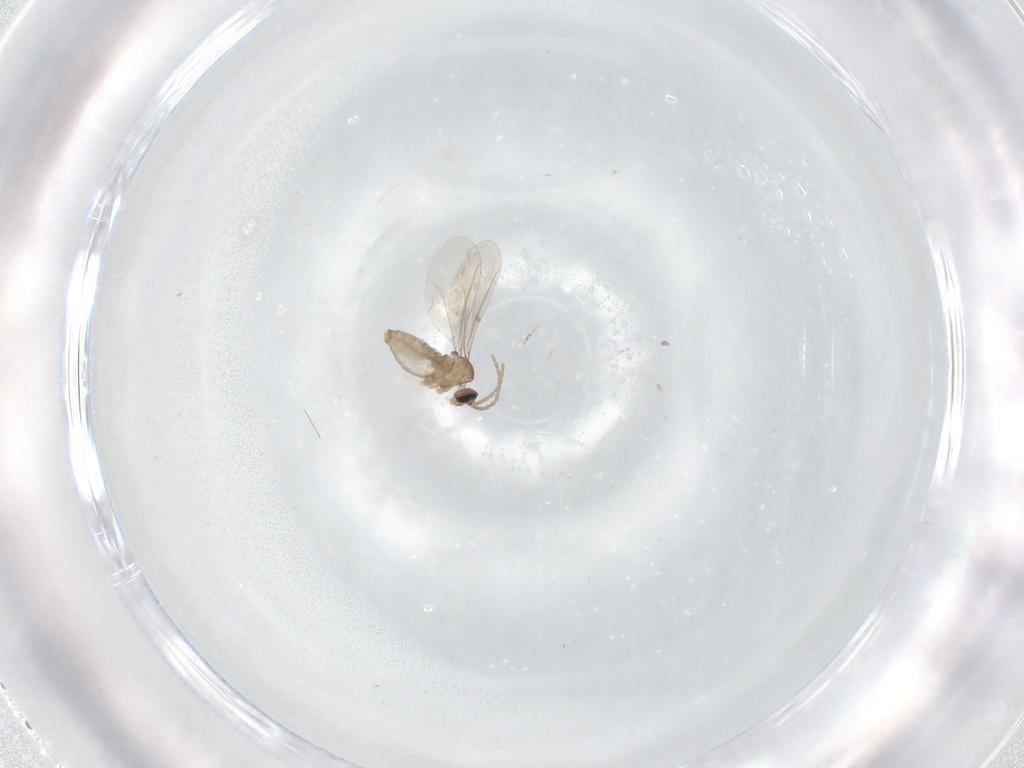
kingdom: Animalia
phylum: Arthropoda
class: Insecta
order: Diptera
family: Cecidomyiidae
